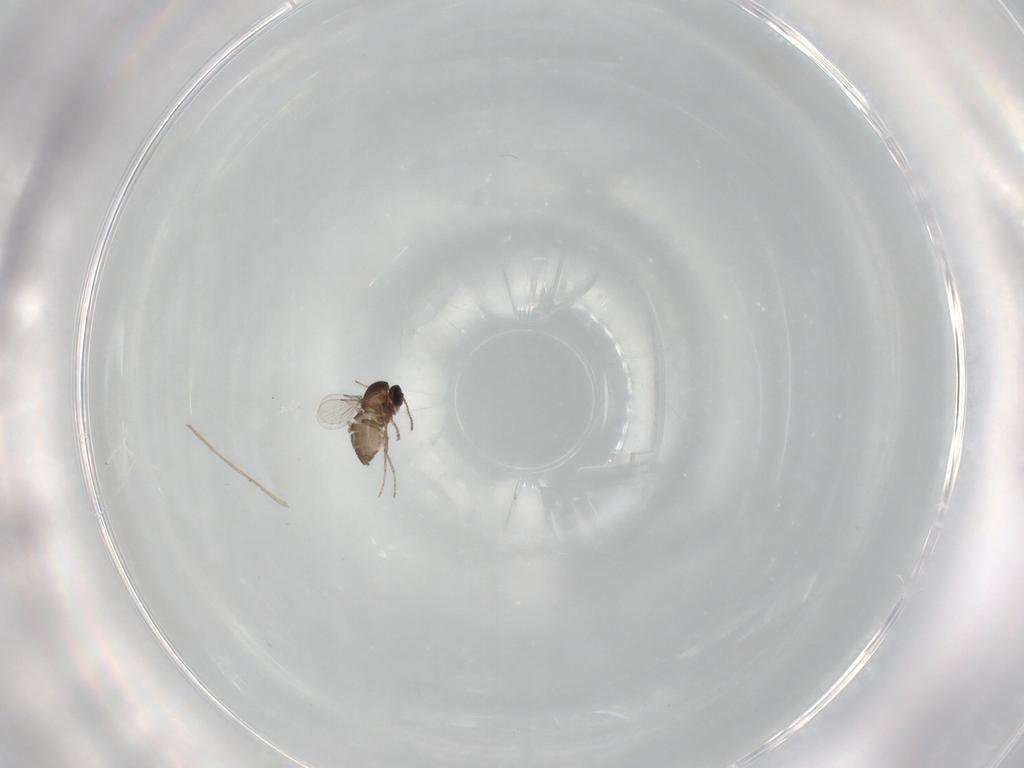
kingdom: Animalia
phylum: Arthropoda
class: Insecta
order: Diptera
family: Ceratopogonidae
